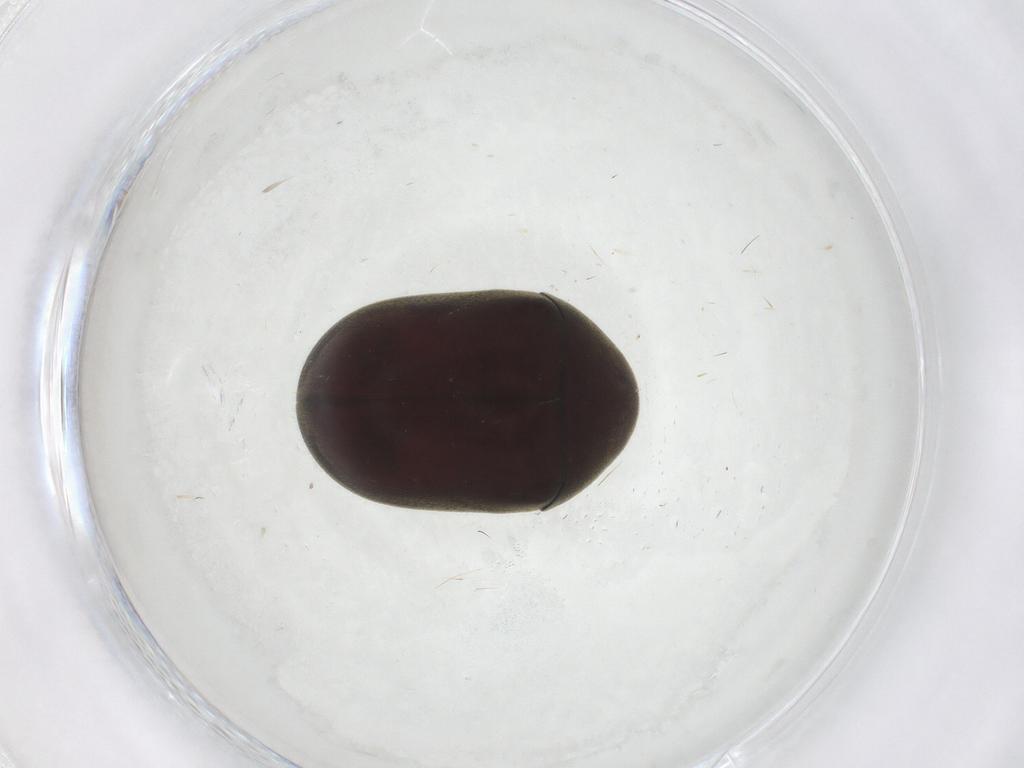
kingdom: Animalia
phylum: Arthropoda
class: Insecta
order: Coleoptera
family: Ptinidae
